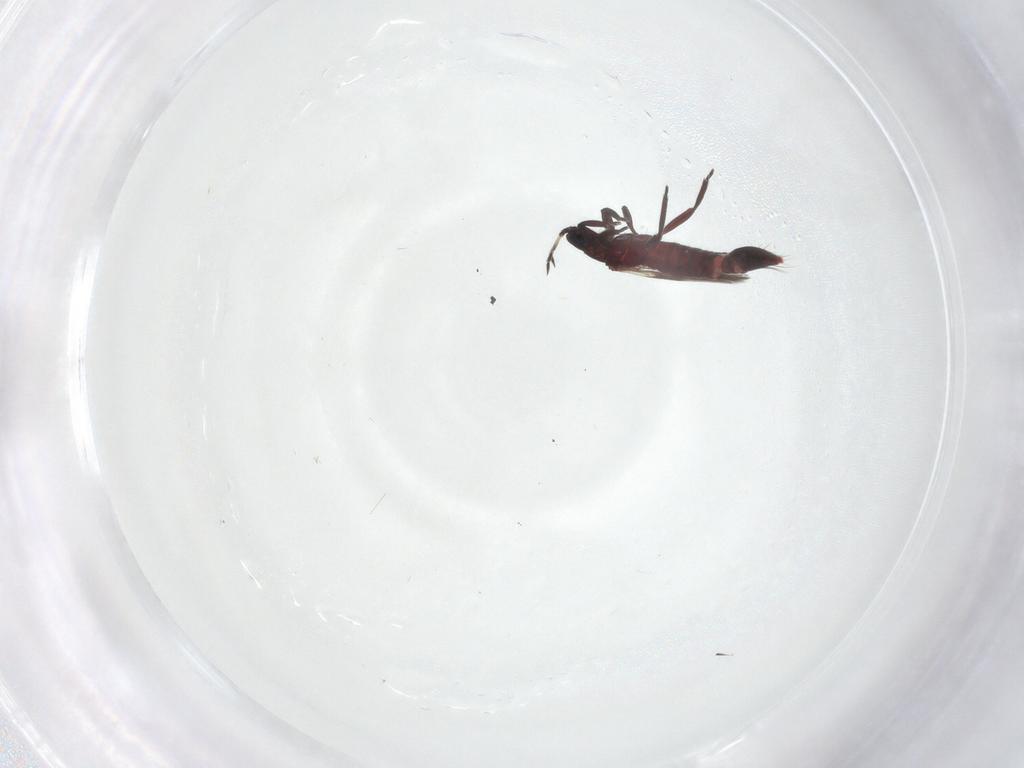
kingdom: Animalia
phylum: Arthropoda
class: Insecta
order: Thysanoptera
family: Aeolothripidae
